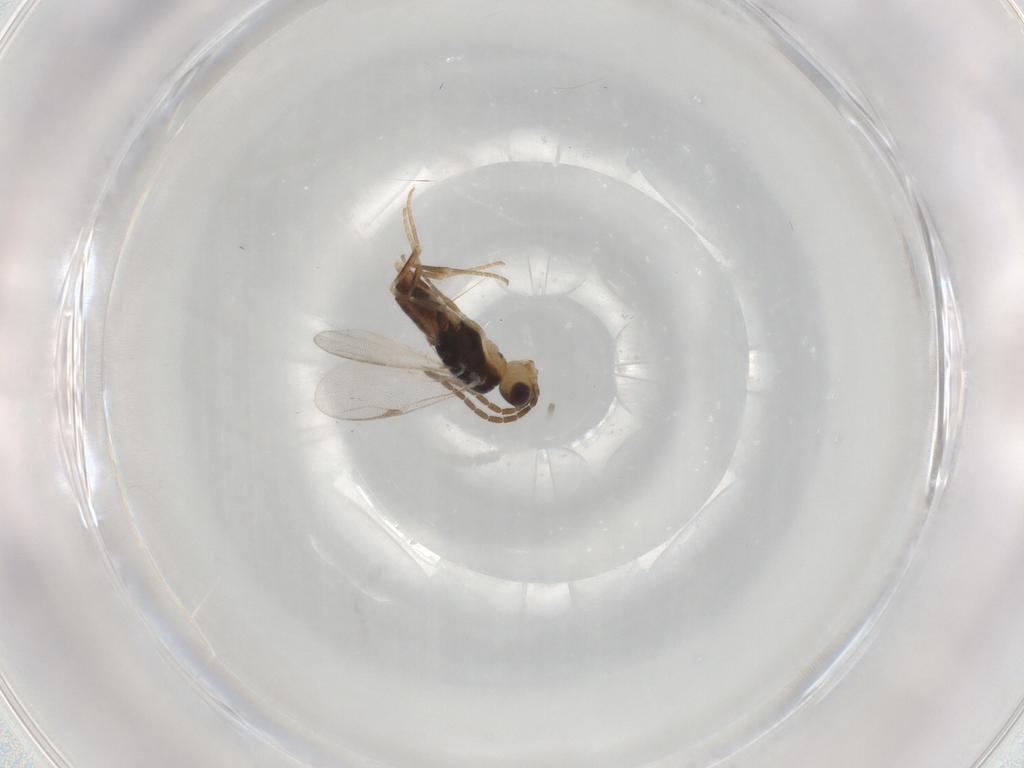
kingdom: Animalia
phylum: Arthropoda
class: Insecta
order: Hymenoptera
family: Dryinidae
